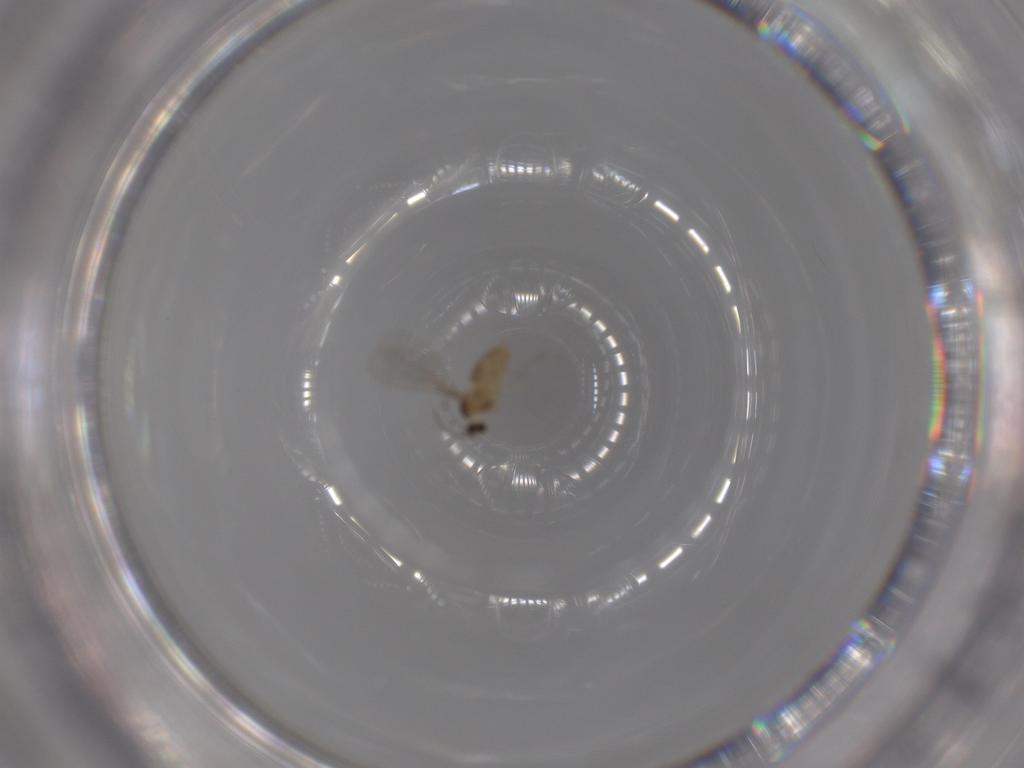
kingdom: Animalia
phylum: Arthropoda
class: Insecta
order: Diptera
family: Cecidomyiidae
